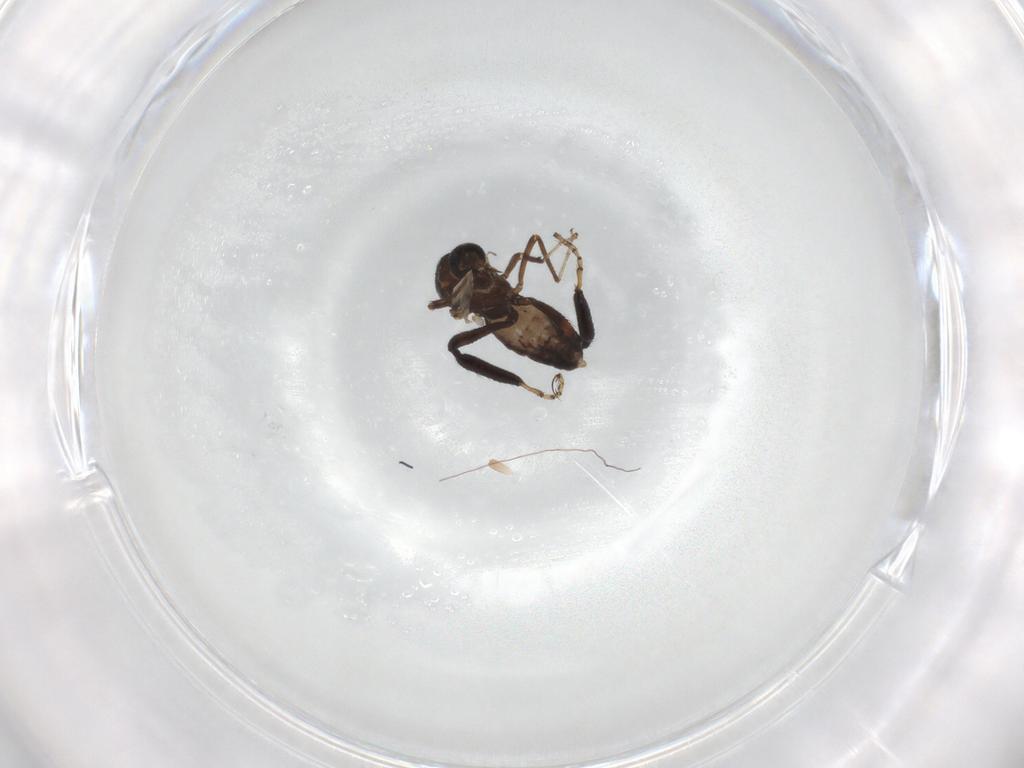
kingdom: Animalia
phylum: Arthropoda
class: Insecta
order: Diptera
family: Ceratopogonidae
